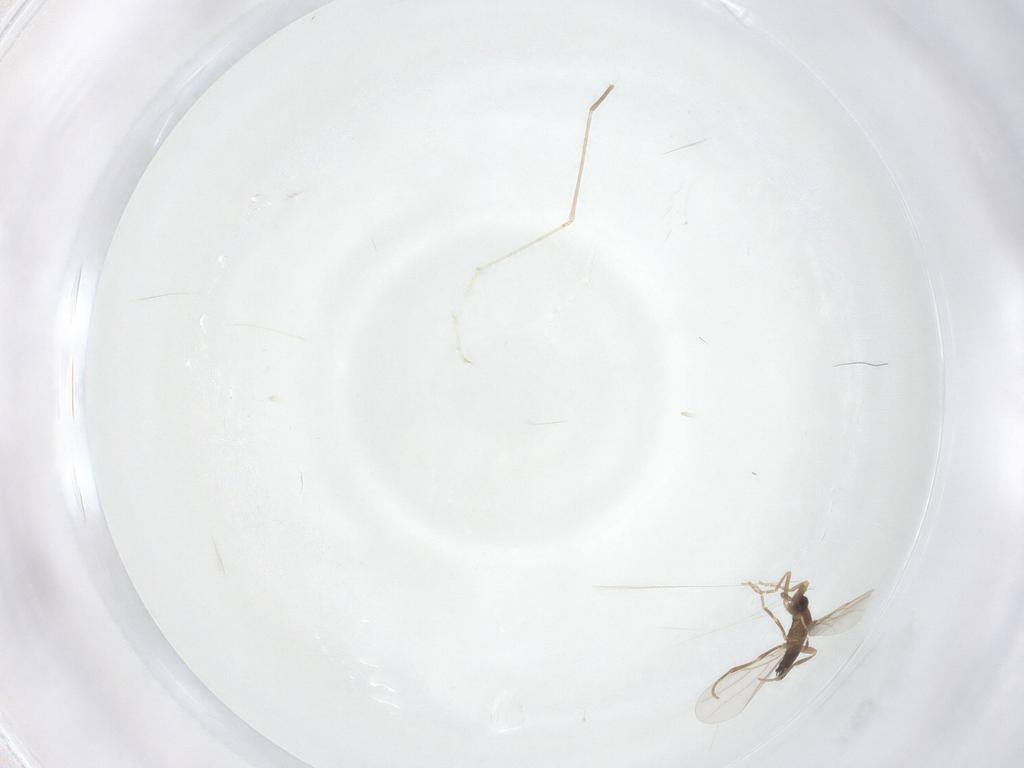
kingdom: Animalia
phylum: Arthropoda
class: Insecta
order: Diptera
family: Cecidomyiidae
